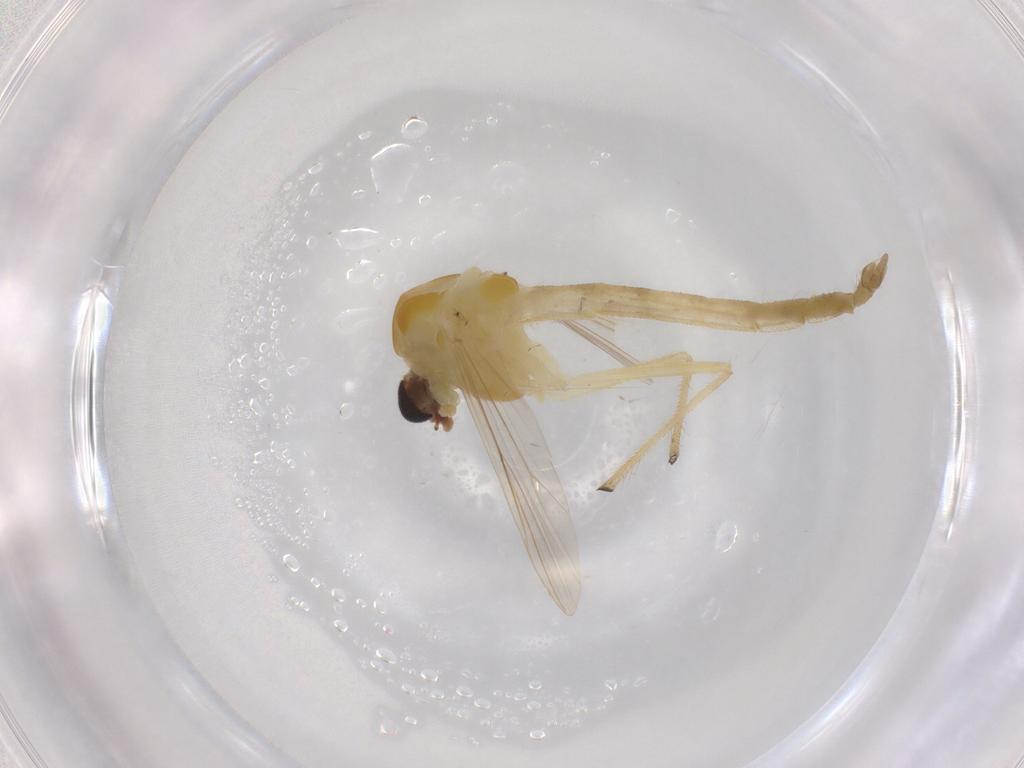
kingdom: Animalia
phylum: Arthropoda
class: Insecta
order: Diptera
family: Chironomidae
